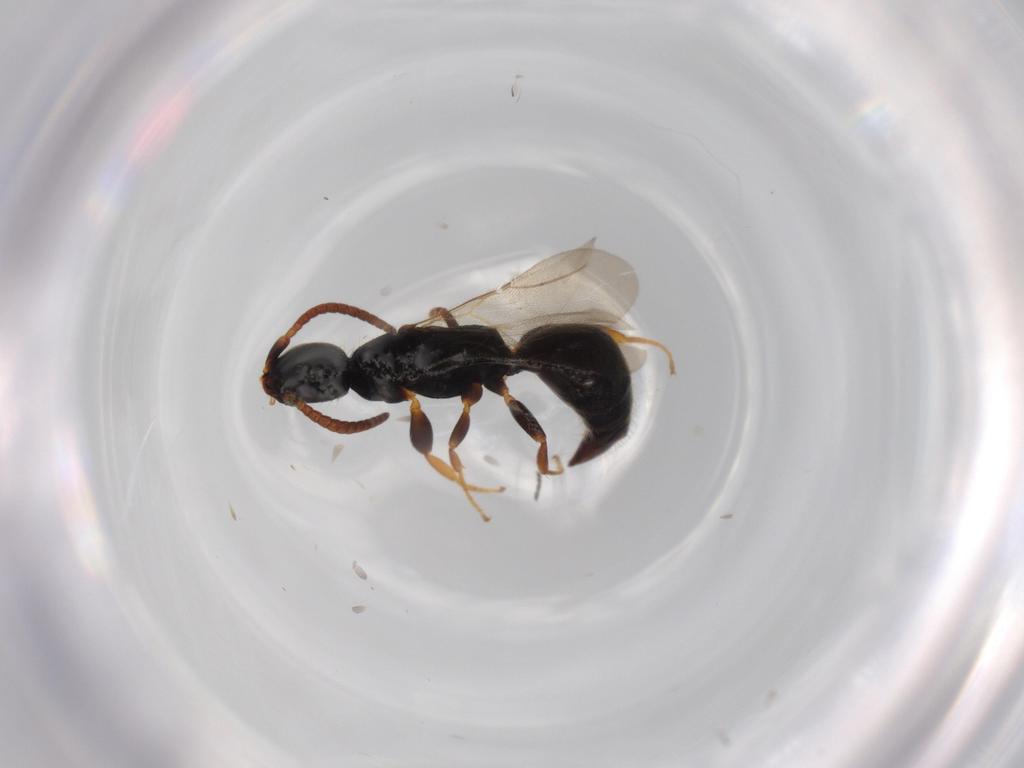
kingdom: Animalia
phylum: Arthropoda
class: Insecta
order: Hymenoptera
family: Bethylidae
